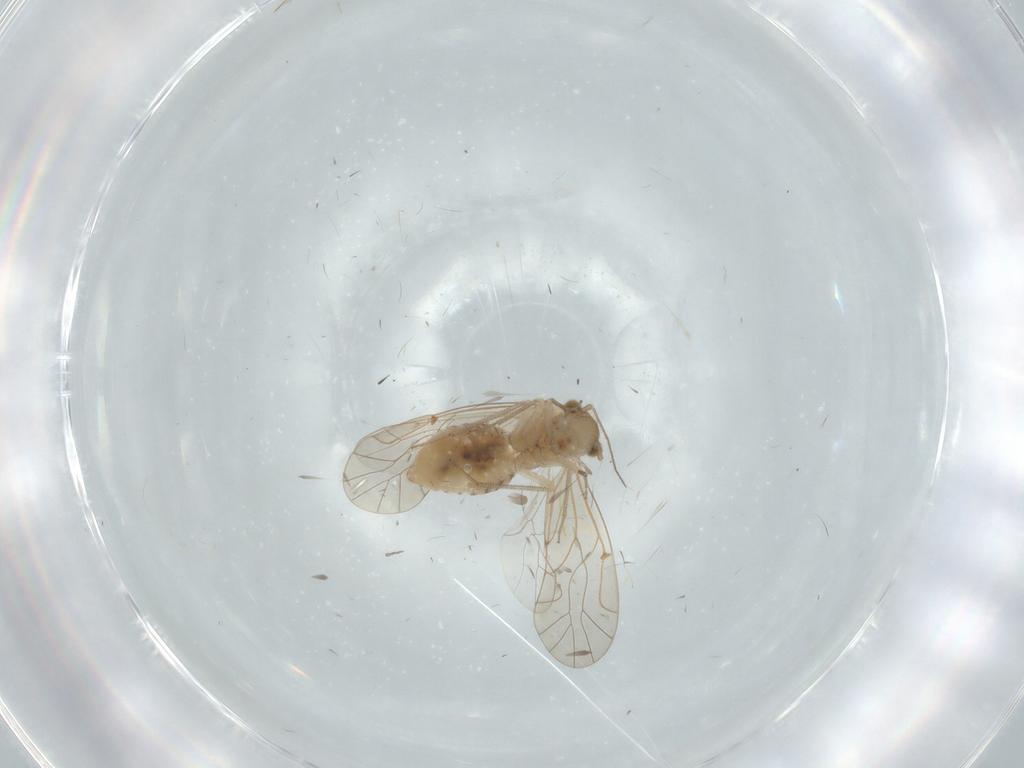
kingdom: Animalia
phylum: Arthropoda
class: Insecta
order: Psocodea
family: Lachesillidae
